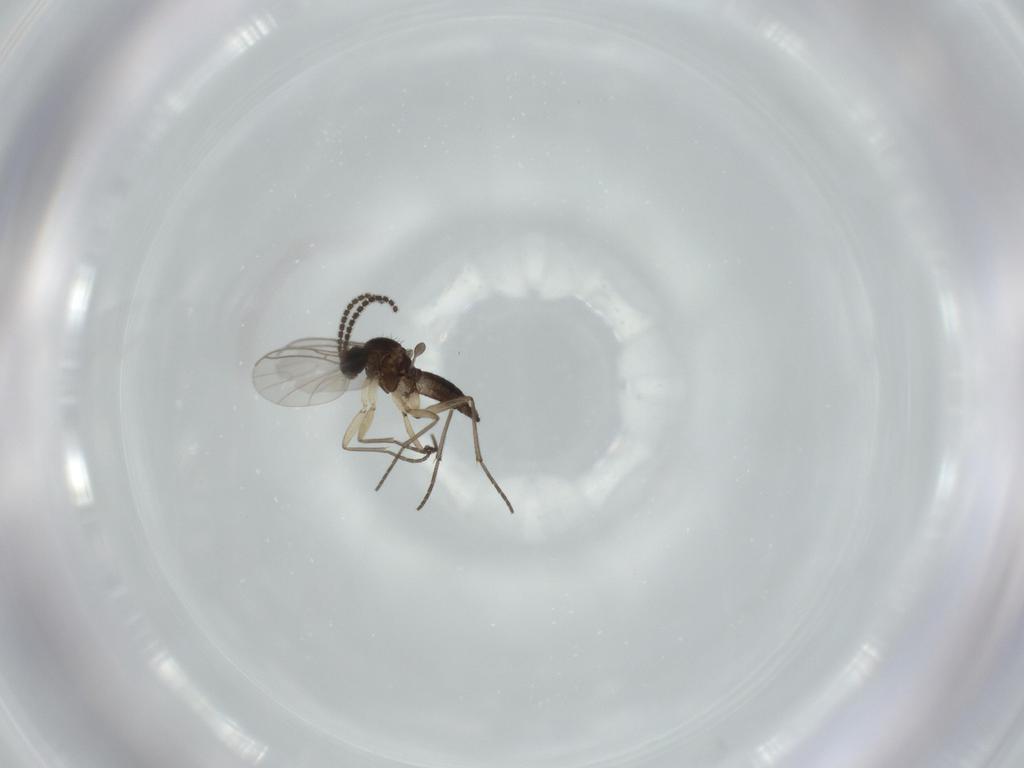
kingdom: Animalia
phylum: Arthropoda
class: Insecta
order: Diptera
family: Sciaridae
